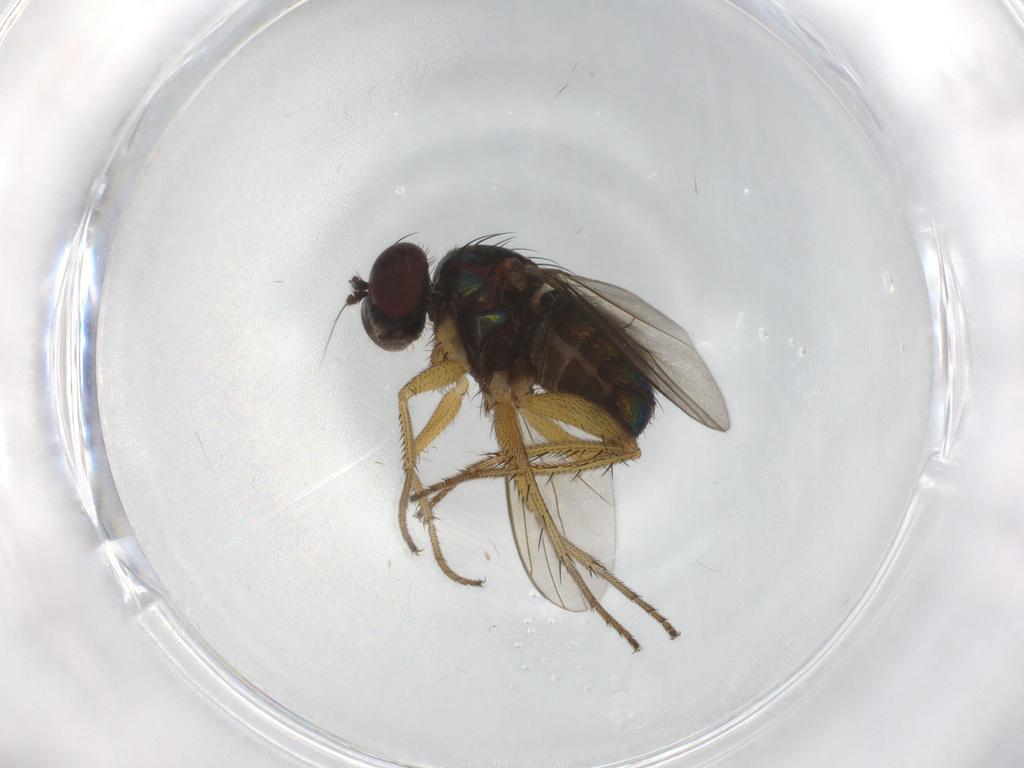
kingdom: Animalia
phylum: Arthropoda
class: Insecta
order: Diptera
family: Dolichopodidae
